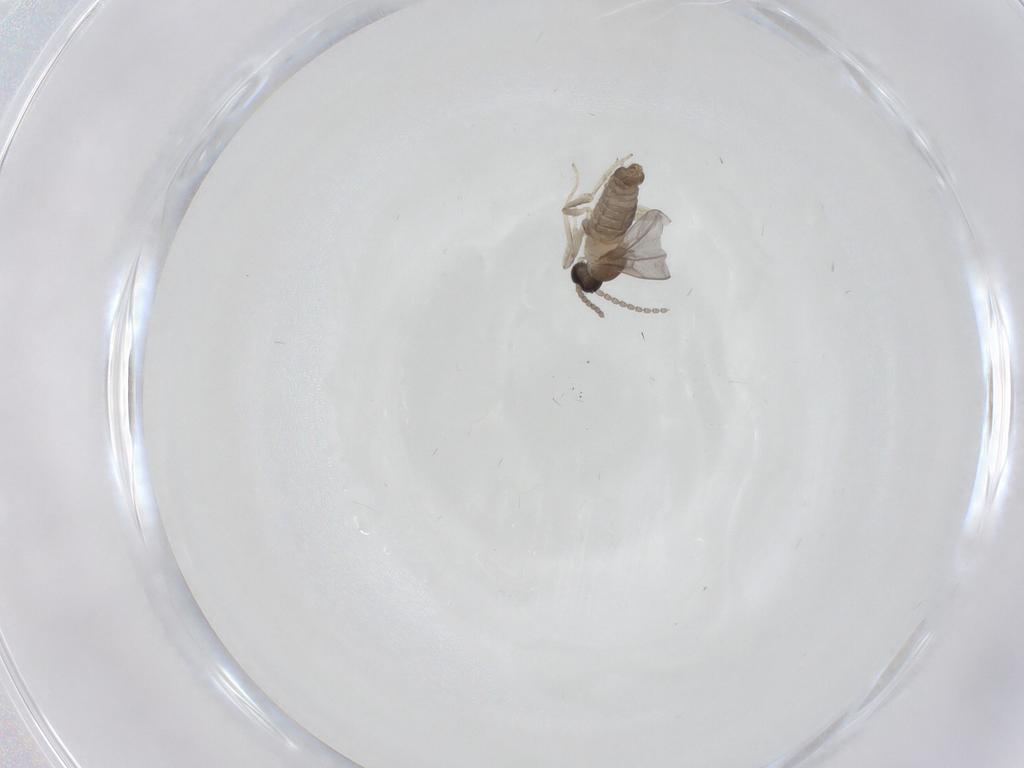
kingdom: Animalia
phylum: Arthropoda
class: Insecta
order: Diptera
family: Cecidomyiidae
